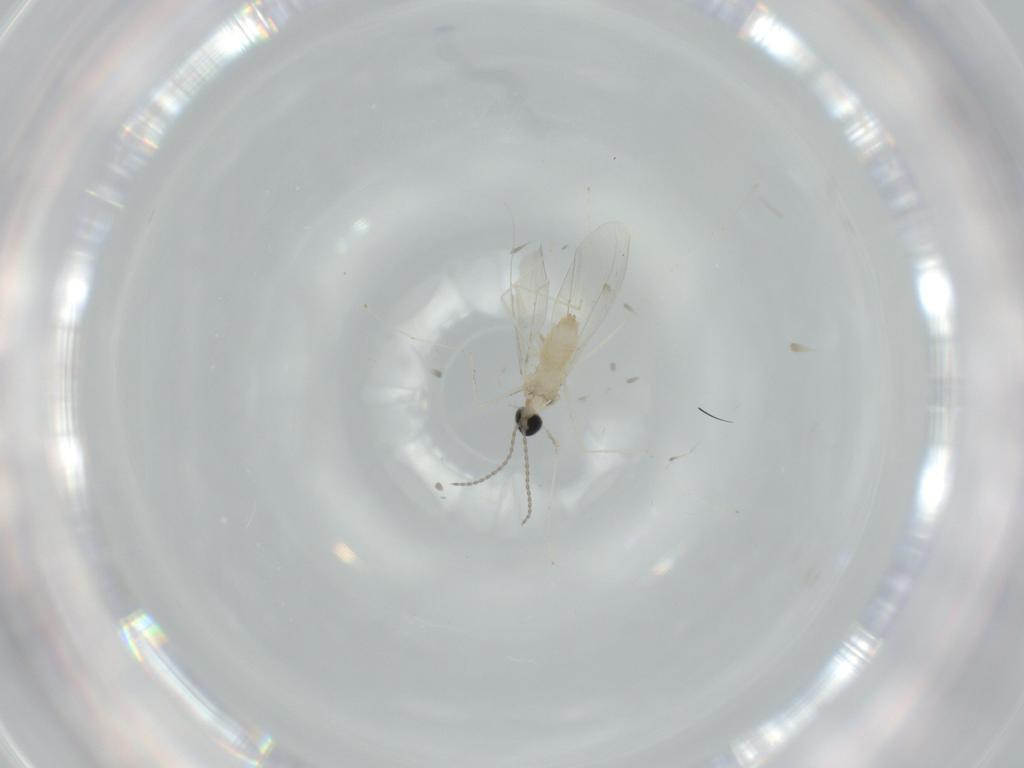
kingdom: Animalia
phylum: Arthropoda
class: Insecta
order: Diptera
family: Cecidomyiidae
